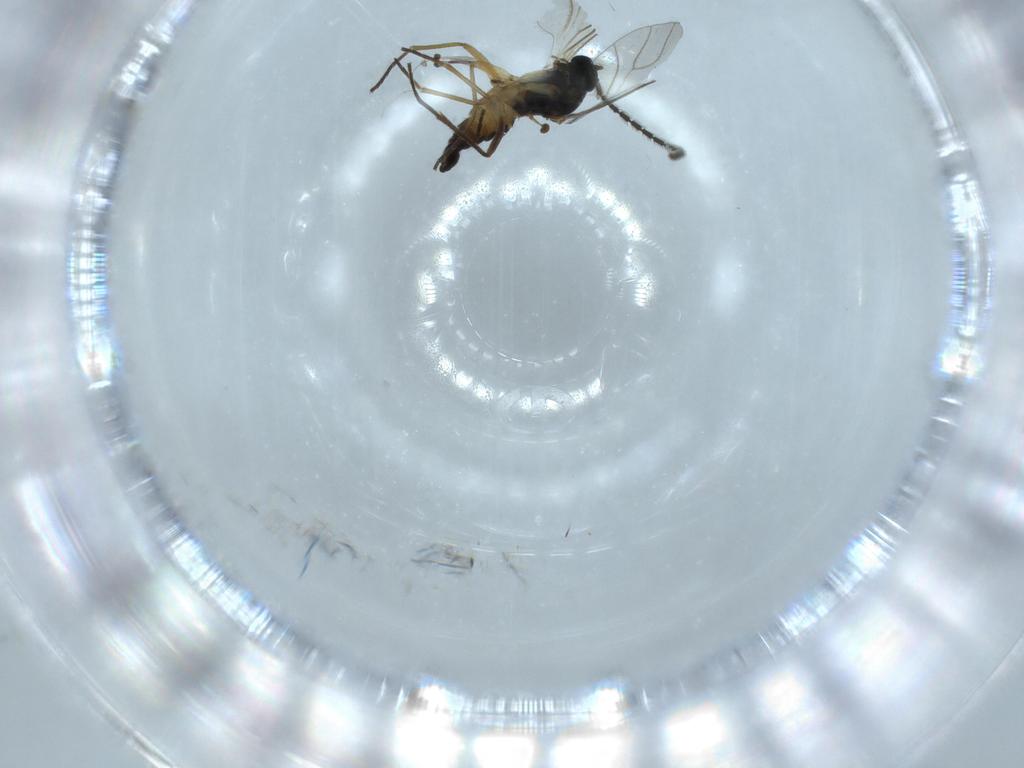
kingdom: Animalia
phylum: Arthropoda
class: Insecta
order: Diptera
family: Sciaridae
